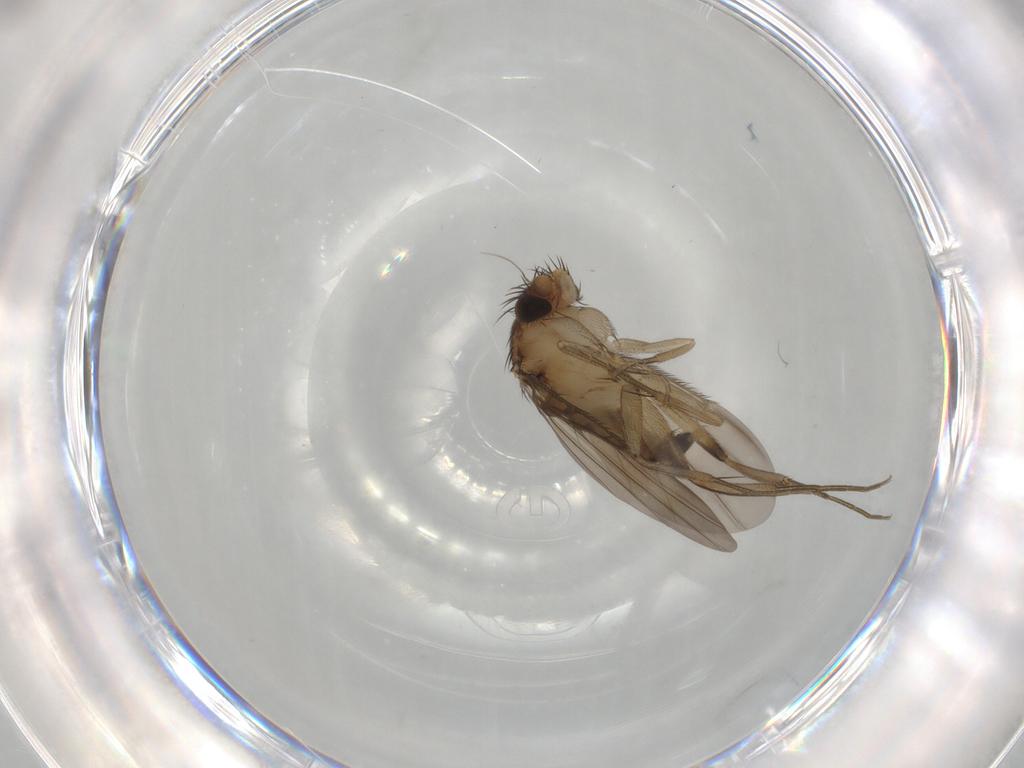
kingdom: Animalia
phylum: Arthropoda
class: Insecta
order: Diptera
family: Phoridae
